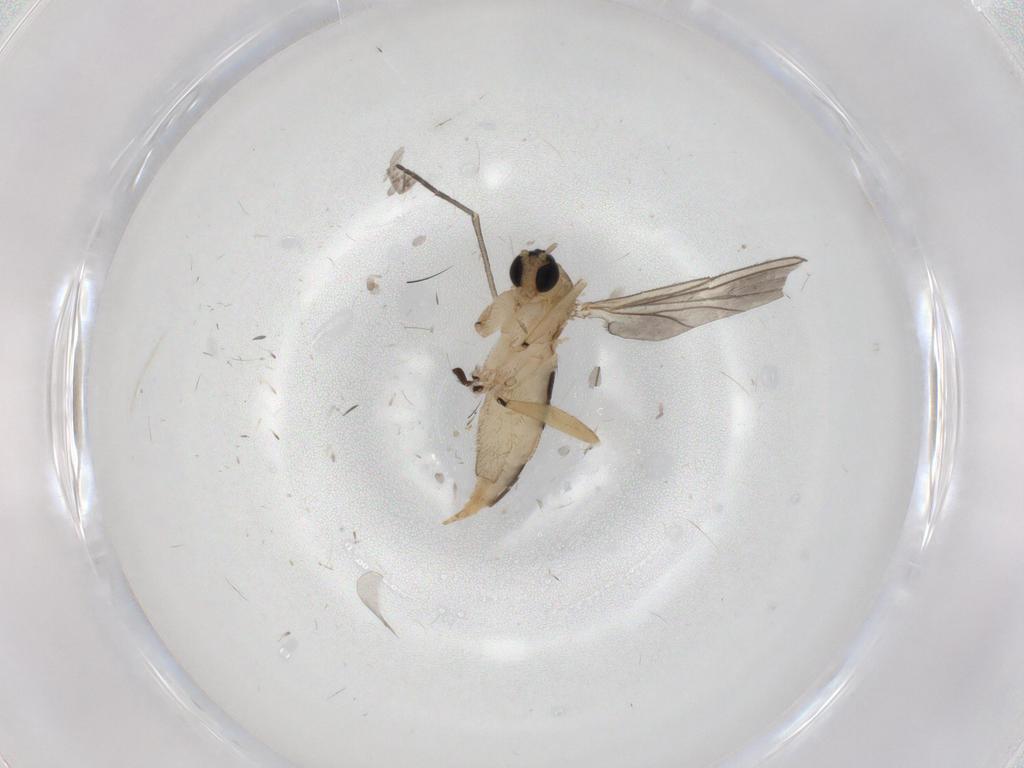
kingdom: Animalia
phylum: Arthropoda
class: Insecta
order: Diptera
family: Sciaridae
